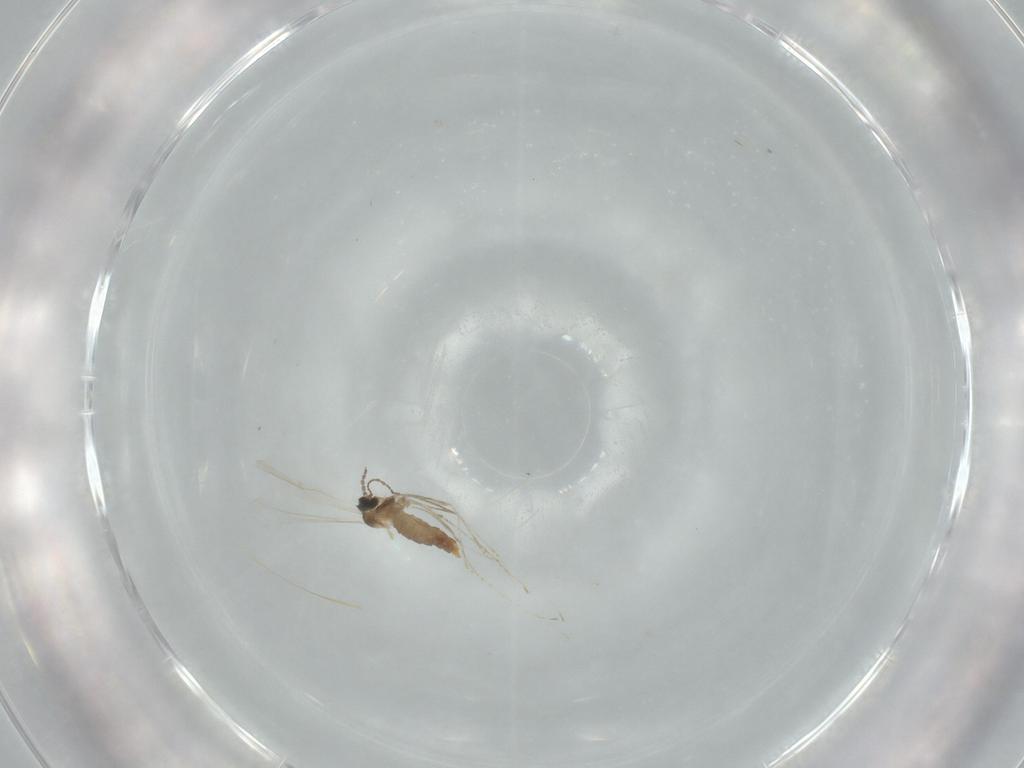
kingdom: Animalia
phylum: Arthropoda
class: Insecta
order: Diptera
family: Cecidomyiidae
